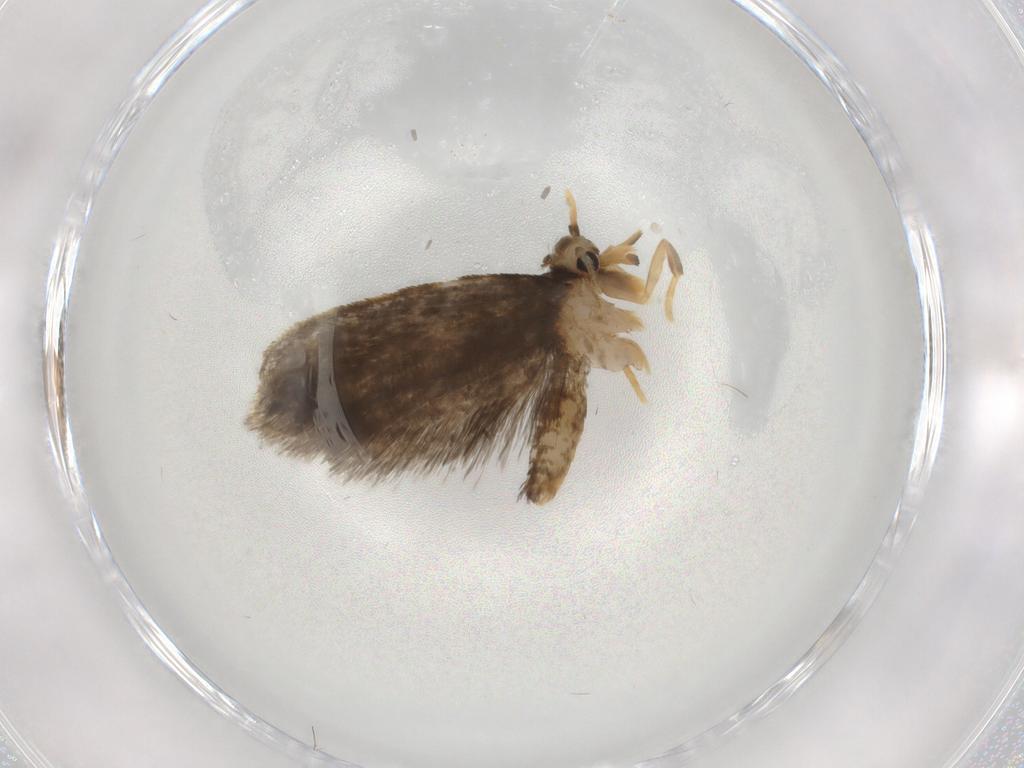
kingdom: Animalia
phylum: Arthropoda
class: Insecta
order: Lepidoptera
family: Psychidae
